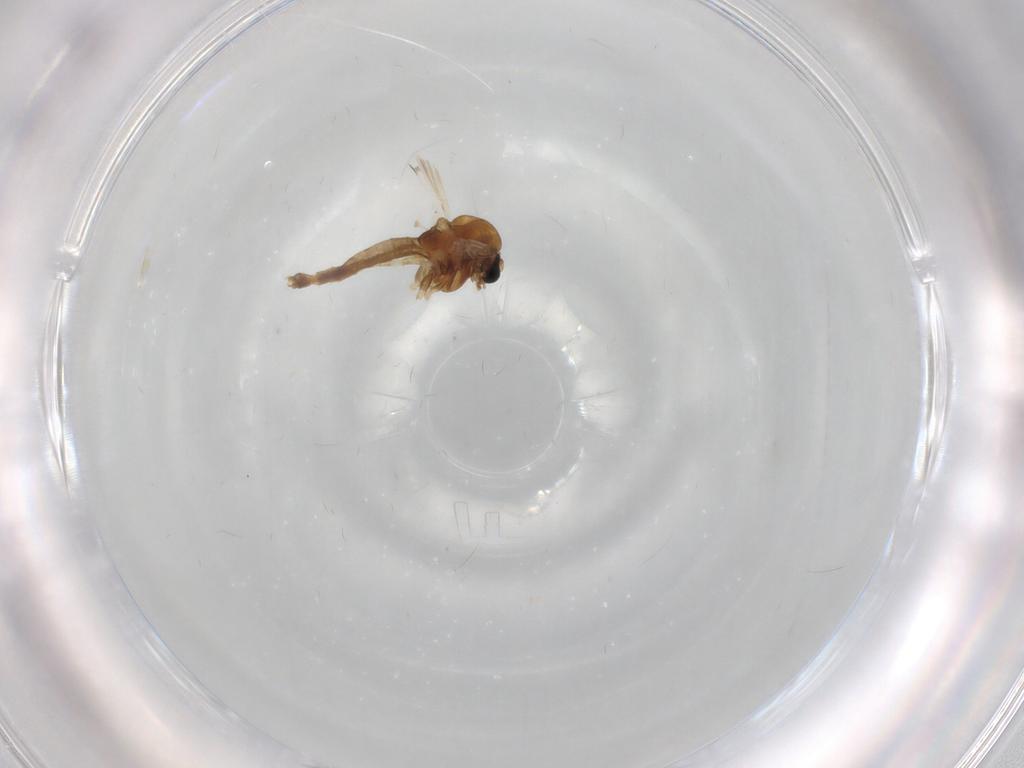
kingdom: Animalia
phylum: Arthropoda
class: Insecta
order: Diptera
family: Chironomidae
